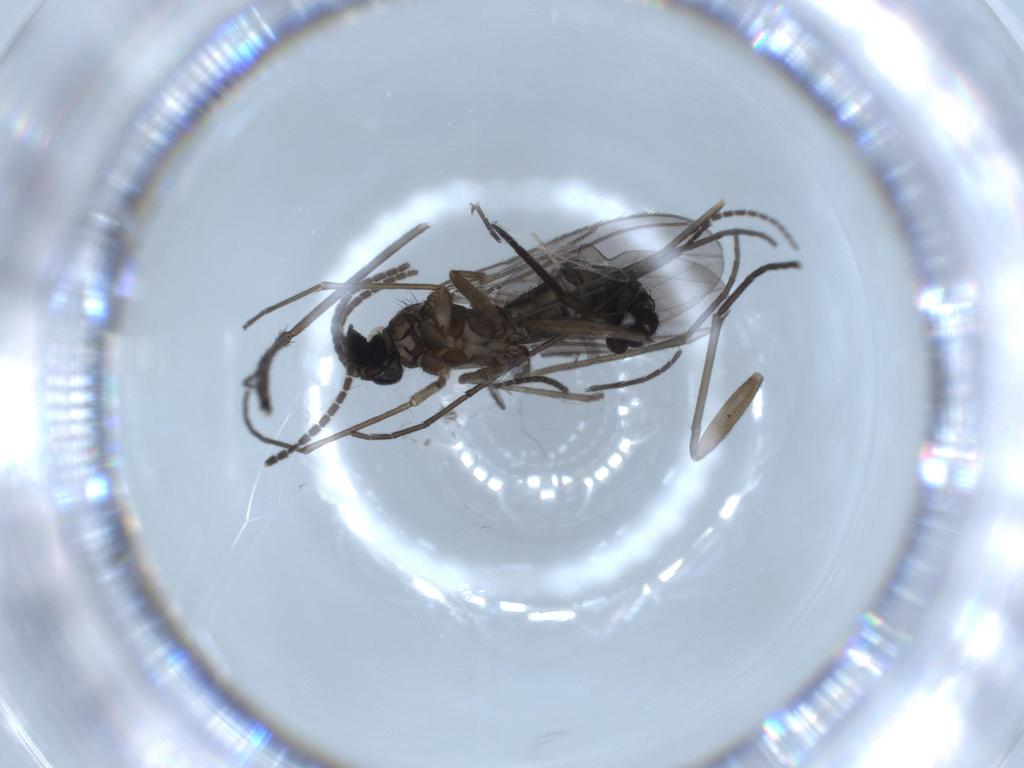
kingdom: Animalia
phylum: Arthropoda
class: Insecta
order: Diptera
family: Sciaridae
